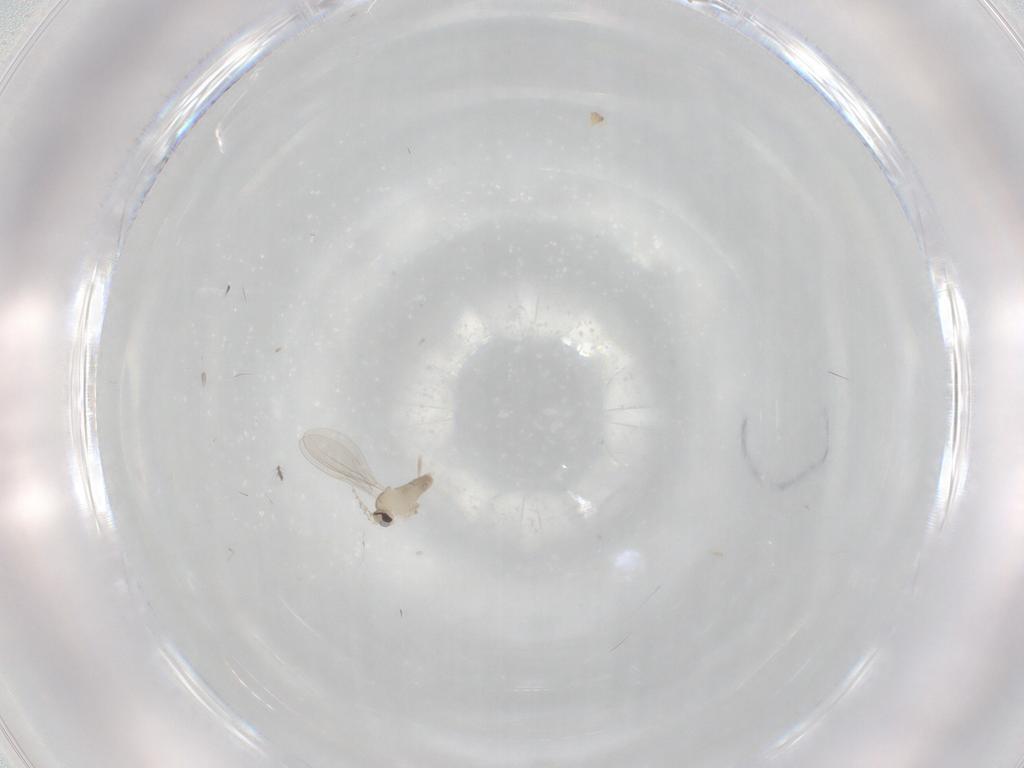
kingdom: Animalia
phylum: Arthropoda
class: Insecta
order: Diptera
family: Cecidomyiidae
